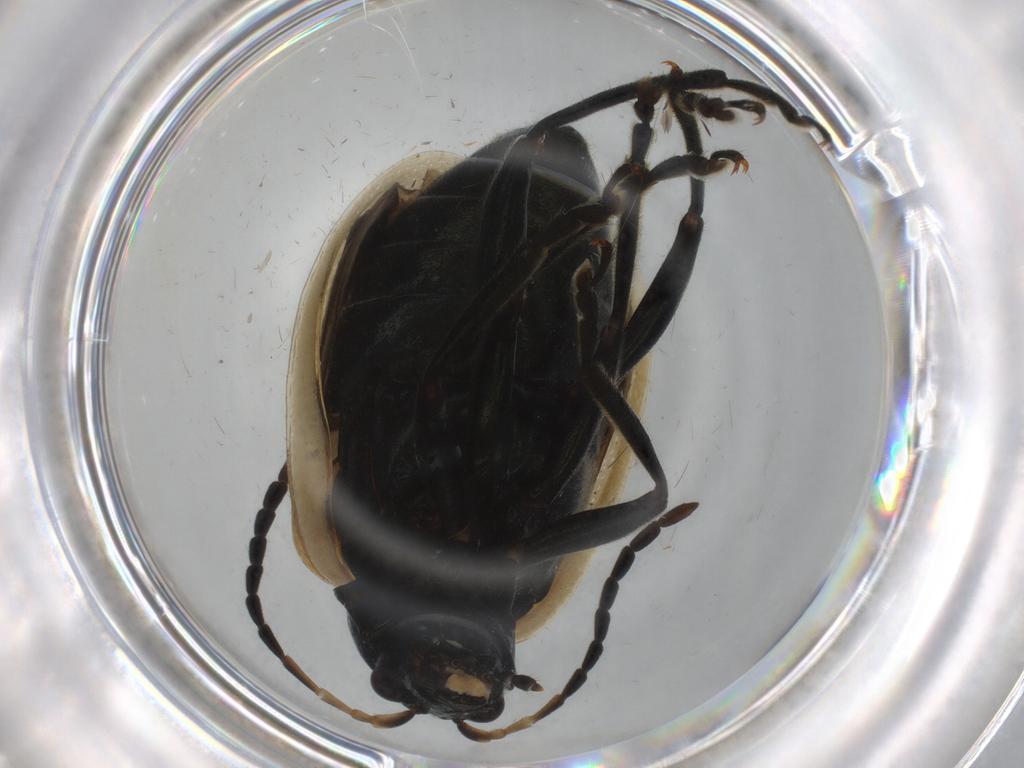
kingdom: Animalia
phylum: Arthropoda
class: Insecta
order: Coleoptera
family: Chrysomelidae
